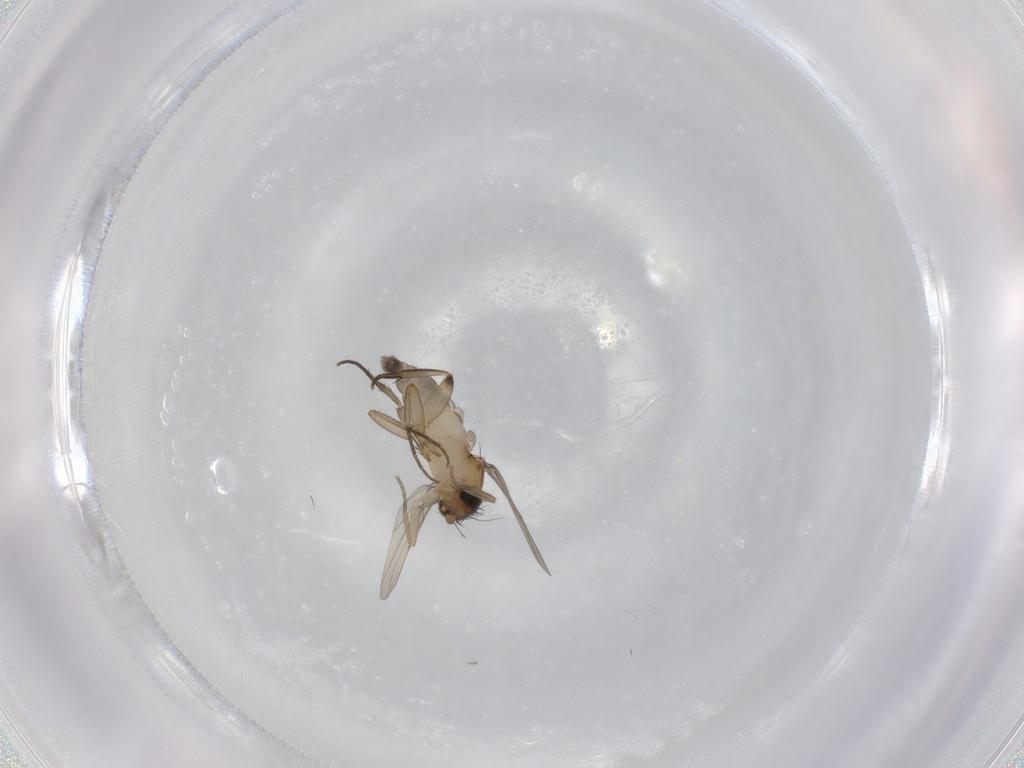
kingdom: Animalia
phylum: Arthropoda
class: Insecta
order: Diptera
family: Phoridae
